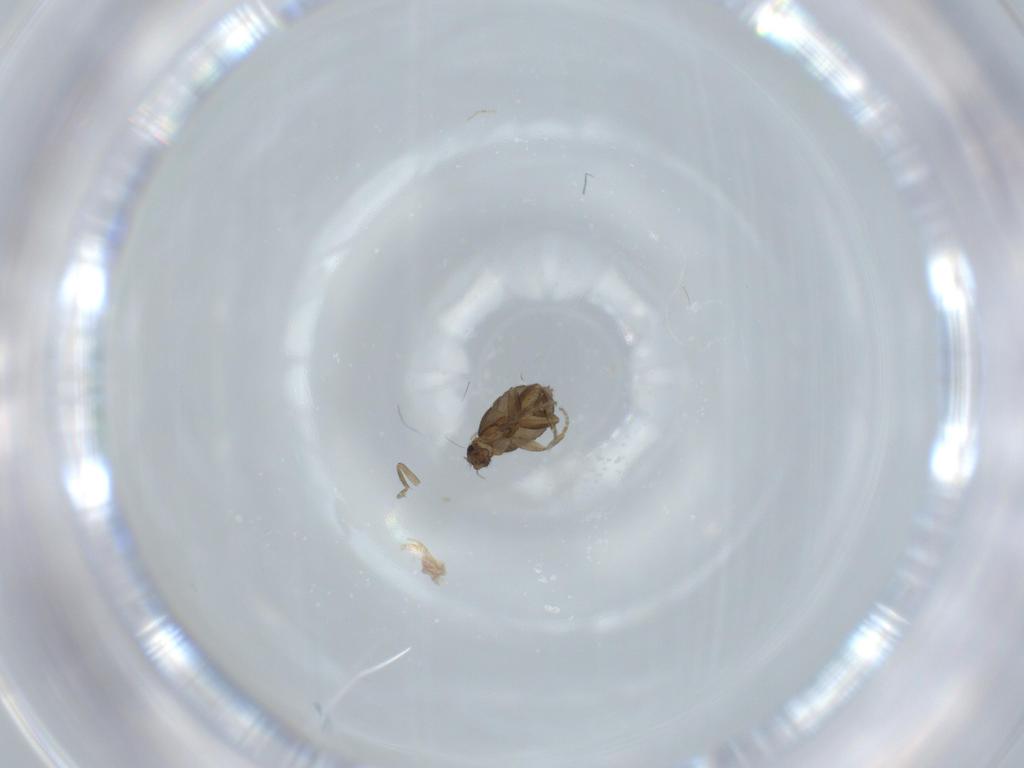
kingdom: Animalia
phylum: Arthropoda
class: Insecta
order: Diptera
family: Phoridae
